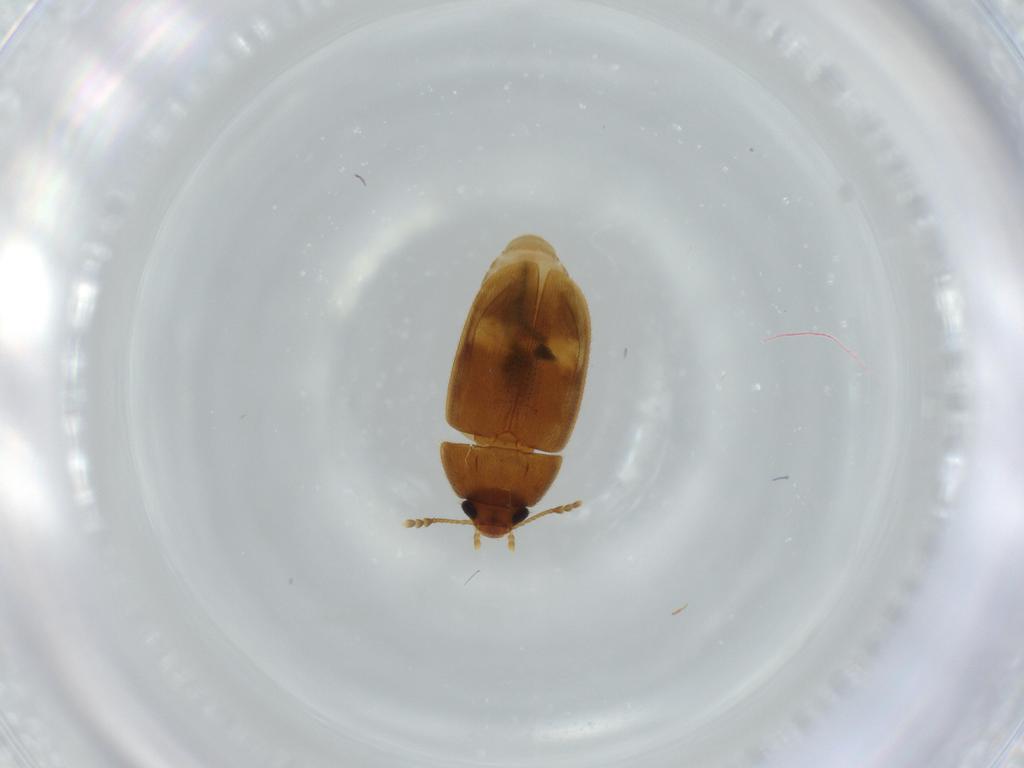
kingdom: Animalia
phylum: Arthropoda
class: Insecta
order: Coleoptera
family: Mycetophagidae
